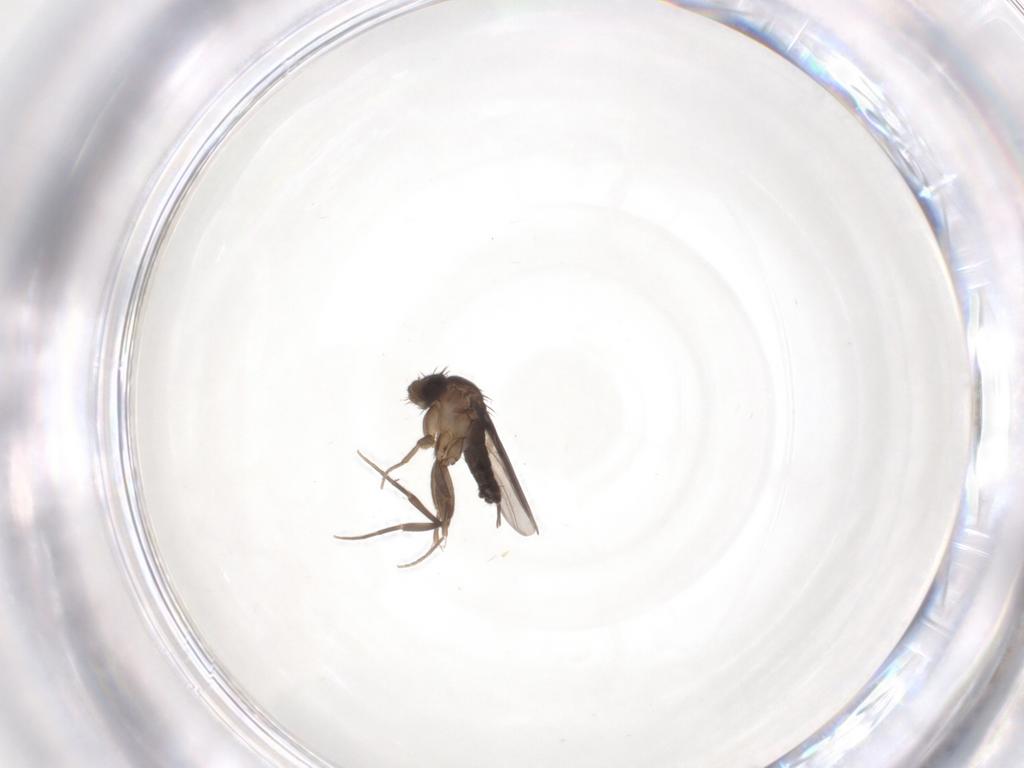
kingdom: Animalia
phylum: Arthropoda
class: Insecta
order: Diptera
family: Phoridae
